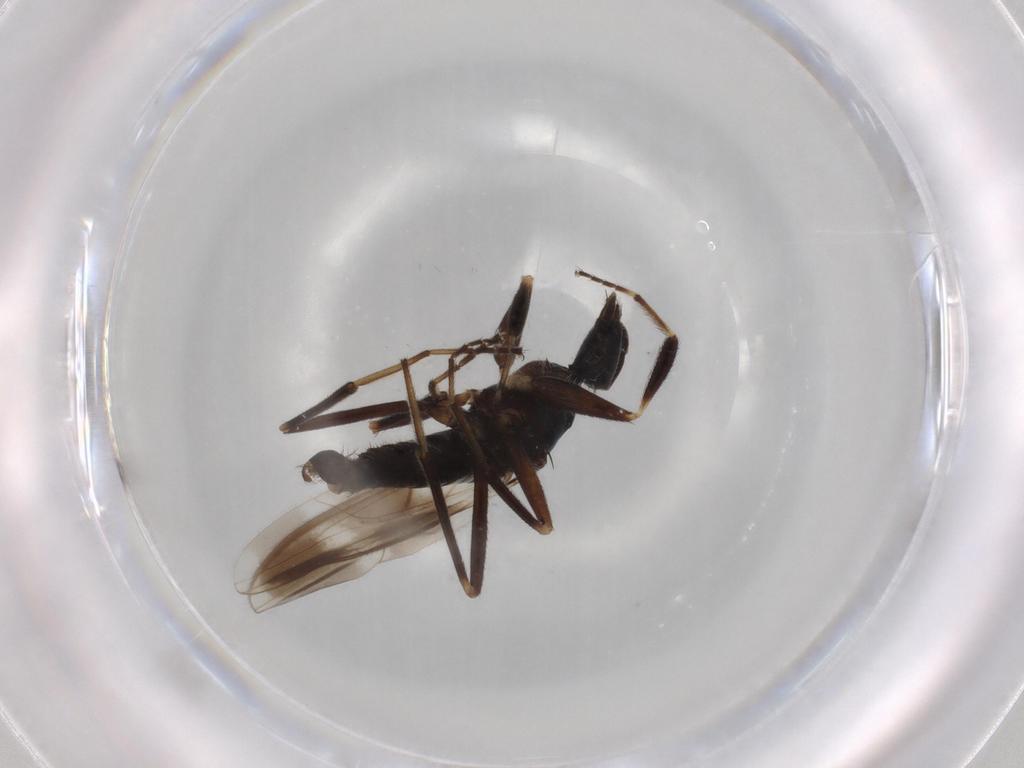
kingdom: Animalia
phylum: Arthropoda
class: Insecta
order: Diptera
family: Hybotidae
